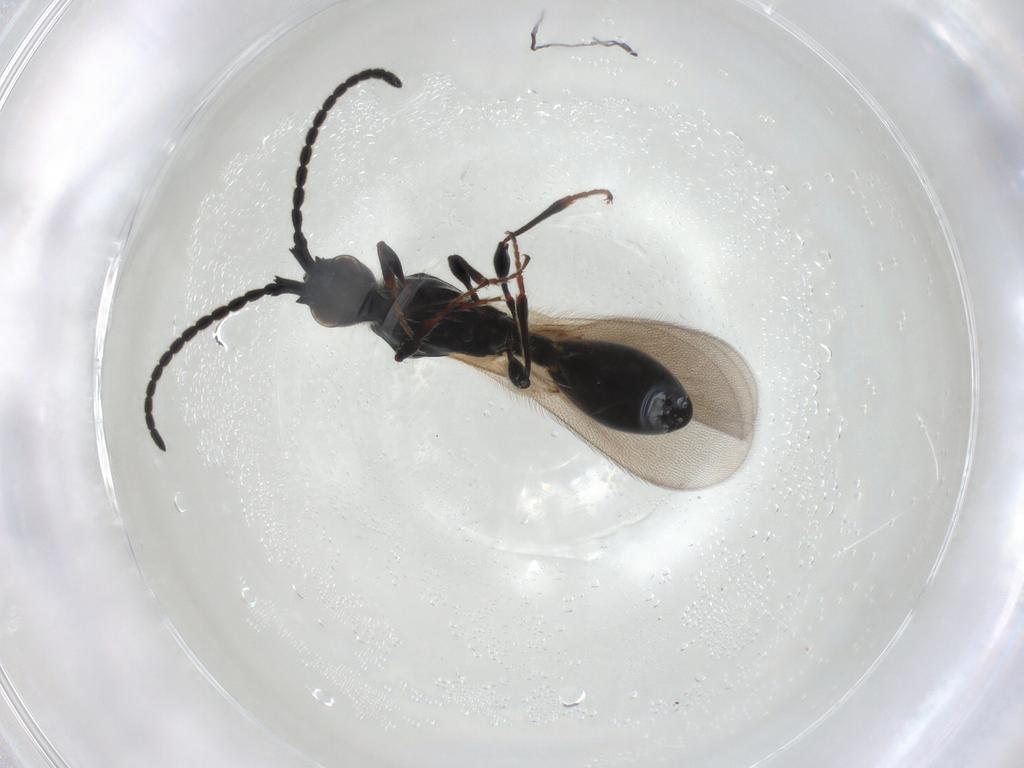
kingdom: Animalia
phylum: Arthropoda
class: Insecta
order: Hymenoptera
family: Diapriidae
